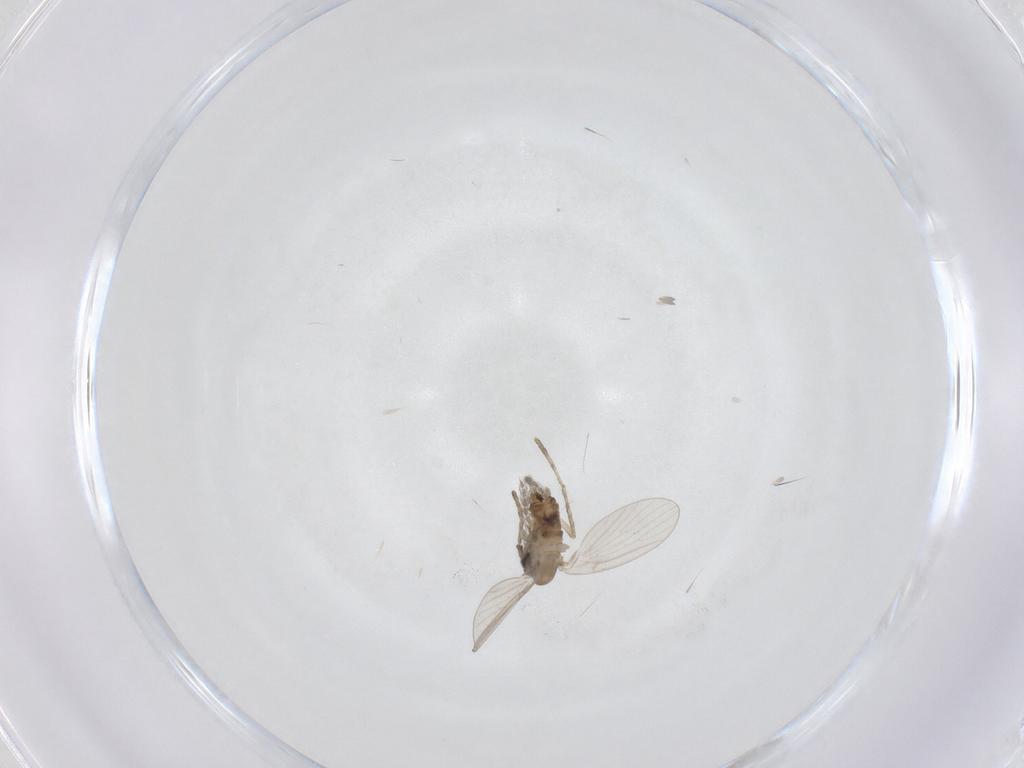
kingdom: Animalia
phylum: Arthropoda
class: Insecta
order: Diptera
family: Psychodidae
